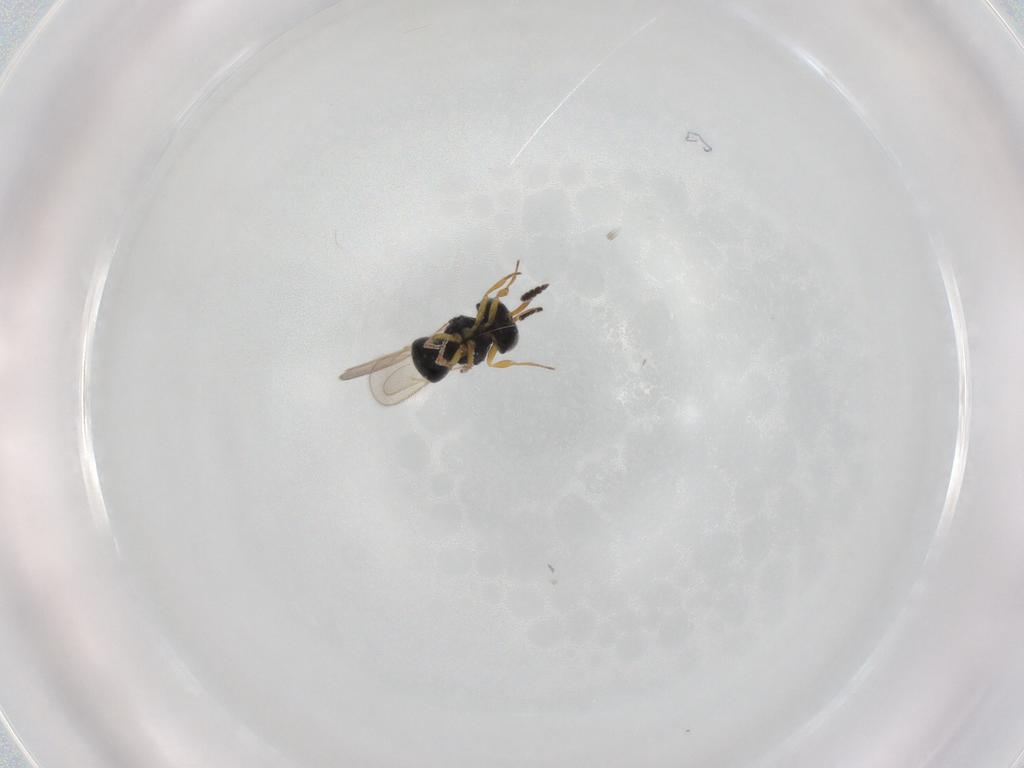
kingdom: Animalia
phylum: Arthropoda
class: Insecta
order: Hymenoptera
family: Scelionidae
